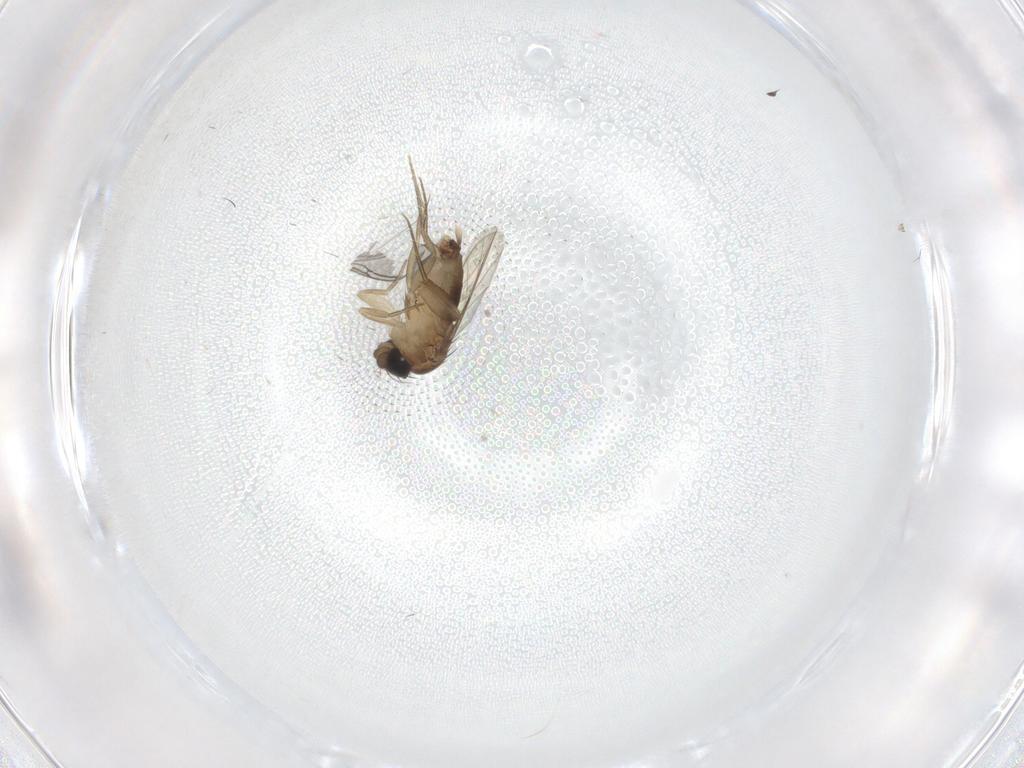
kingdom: Animalia
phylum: Arthropoda
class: Insecta
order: Diptera
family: Phoridae
